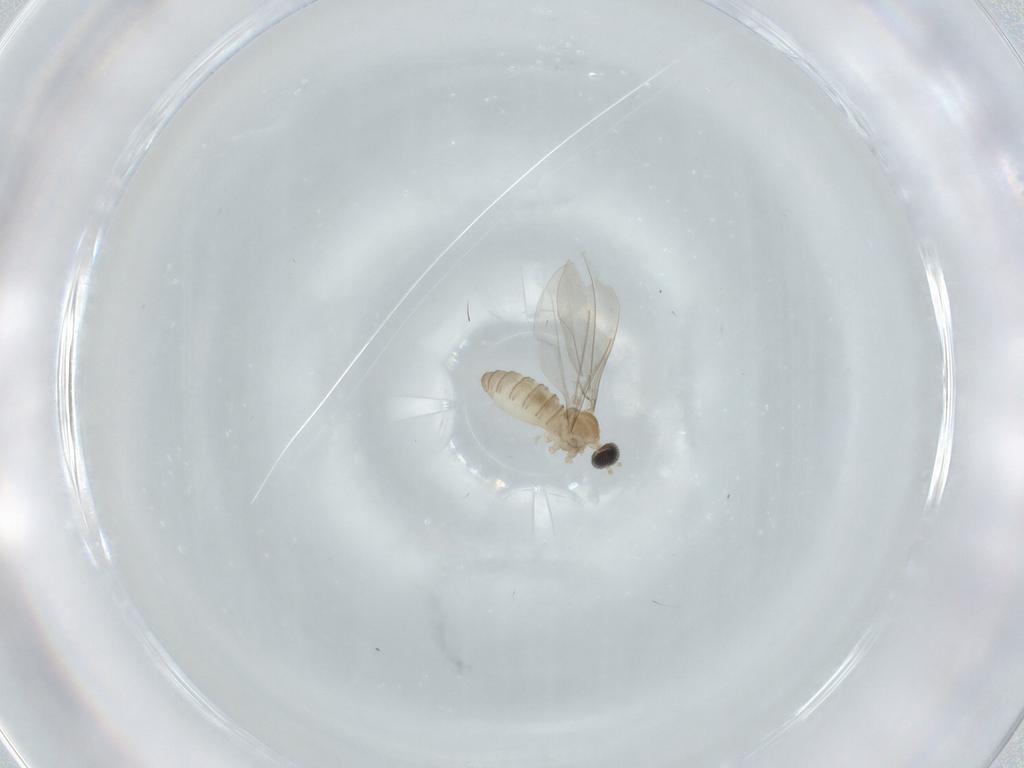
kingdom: Animalia
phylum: Arthropoda
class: Insecta
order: Diptera
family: Cecidomyiidae
